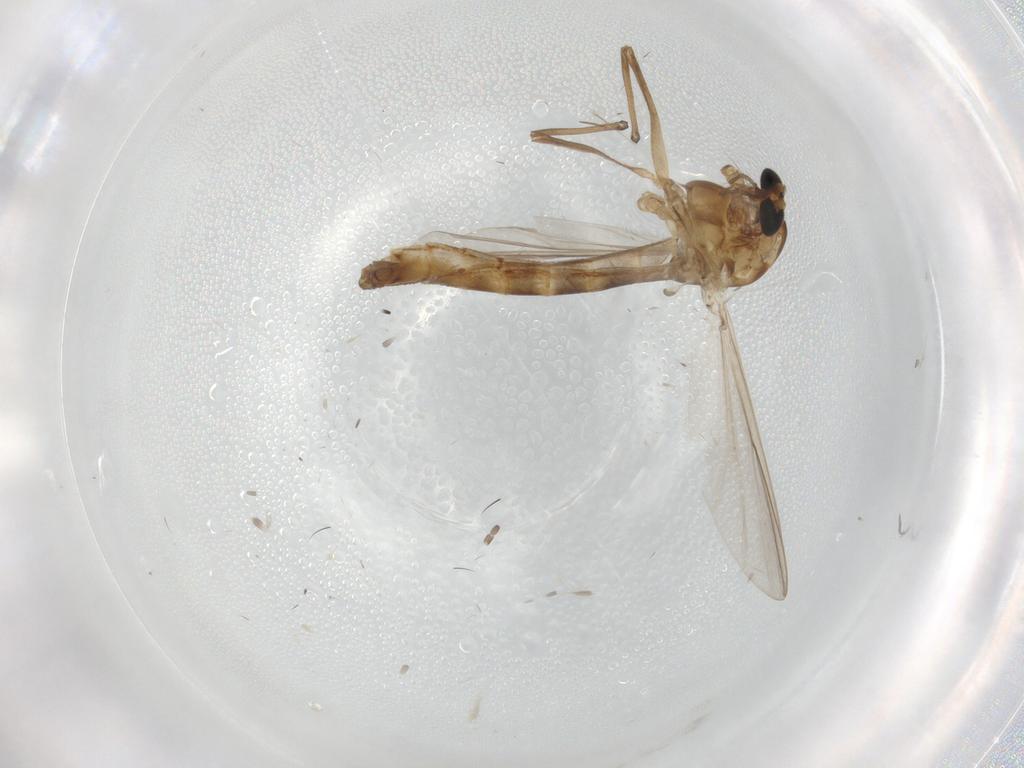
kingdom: Animalia
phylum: Arthropoda
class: Insecta
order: Diptera
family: Chironomidae
